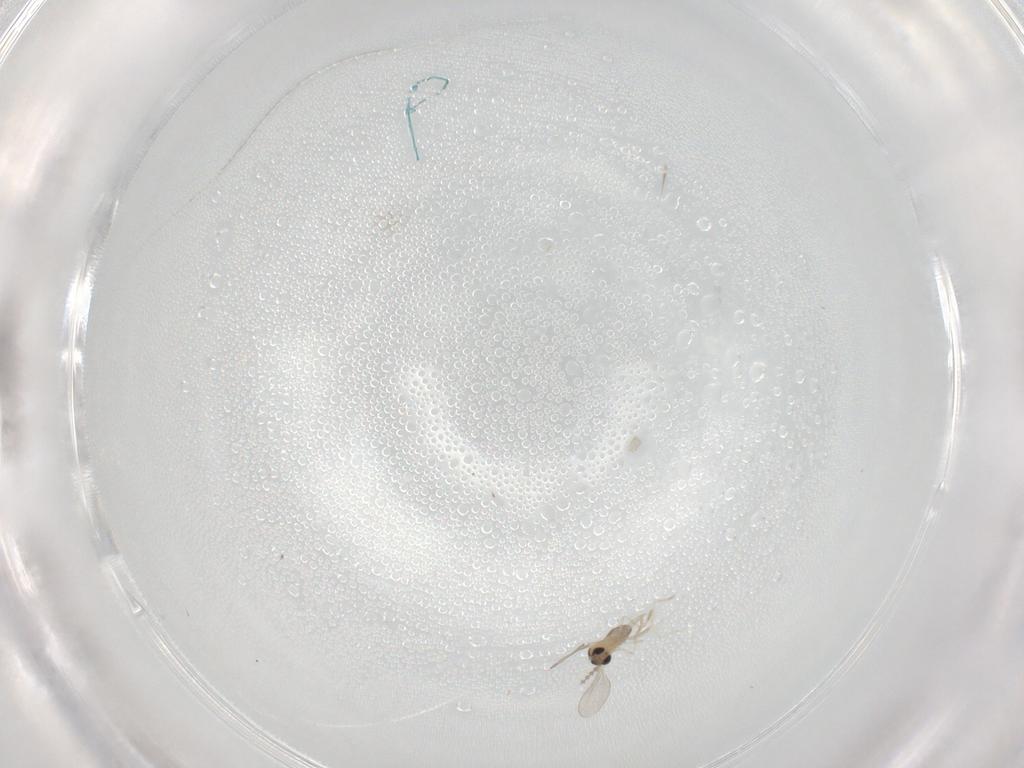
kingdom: Animalia
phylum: Arthropoda
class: Insecta
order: Diptera
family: Cecidomyiidae
